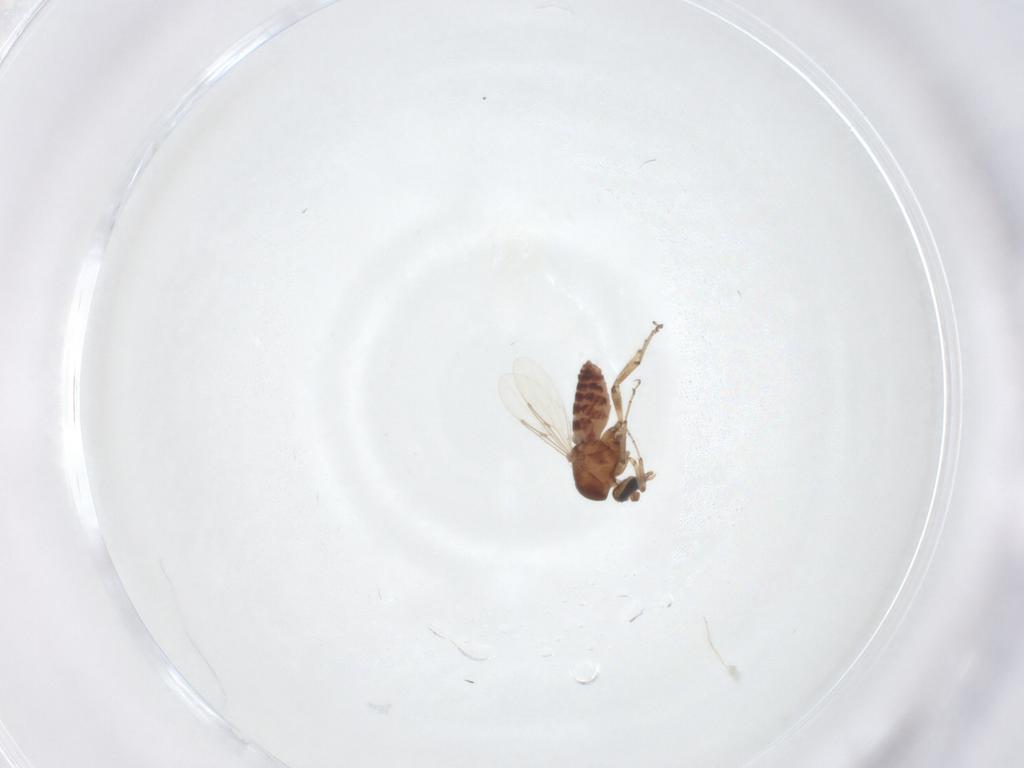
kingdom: Animalia
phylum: Arthropoda
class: Insecta
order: Diptera
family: Ceratopogonidae
